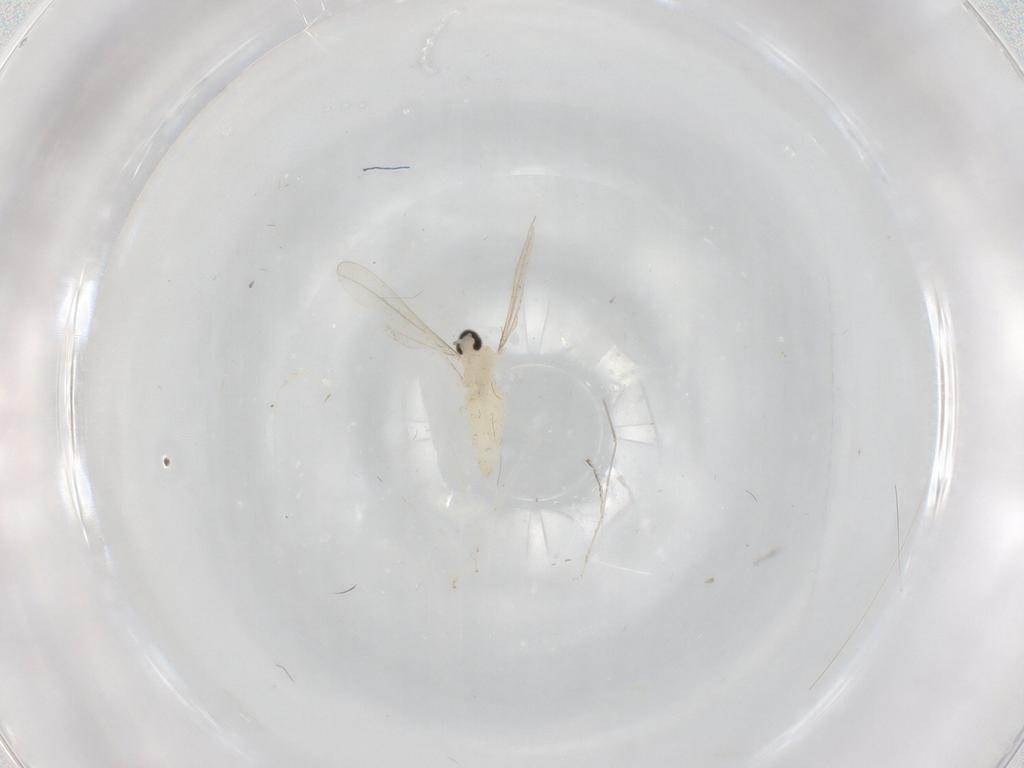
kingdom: Animalia
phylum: Arthropoda
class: Insecta
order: Diptera
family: Cecidomyiidae
